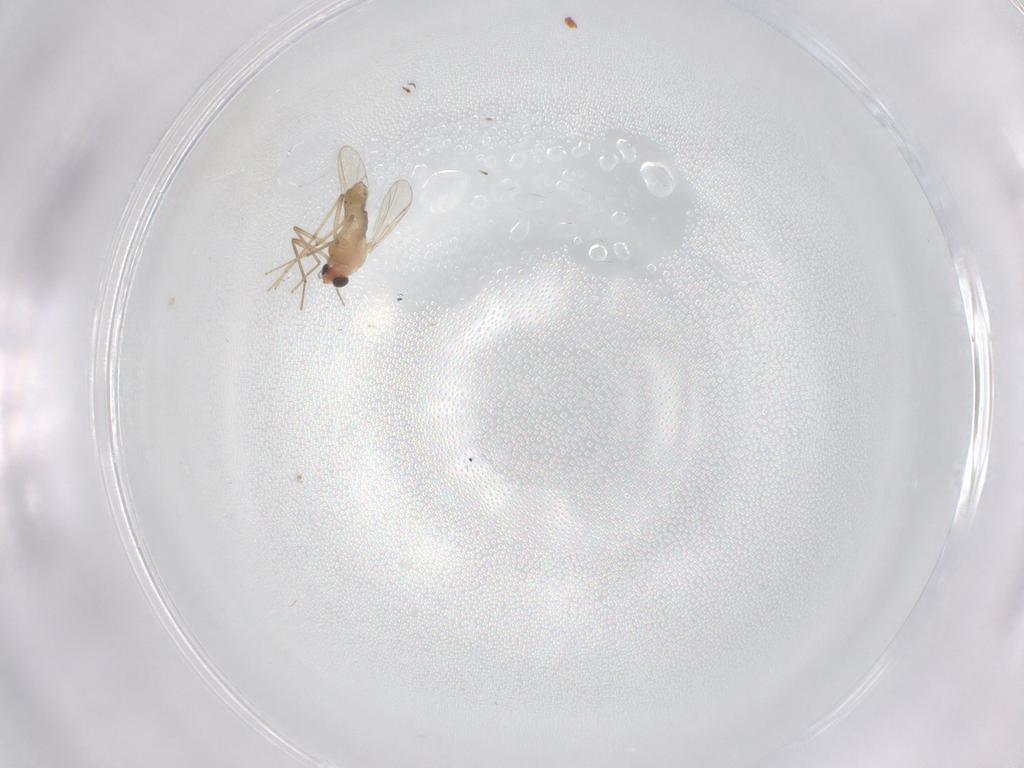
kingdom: Animalia
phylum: Arthropoda
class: Insecta
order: Diptera
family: Chironomidae
